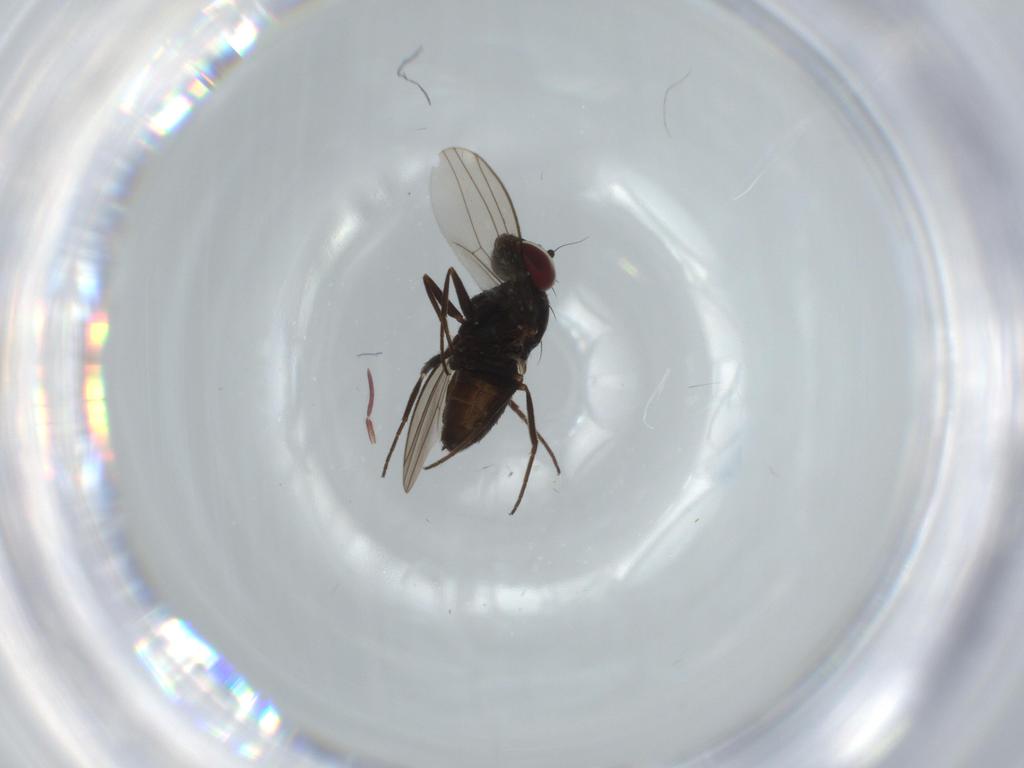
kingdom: Animalia
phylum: Arthropoda
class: Insecta
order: Diptera
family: Dolichopodidae
